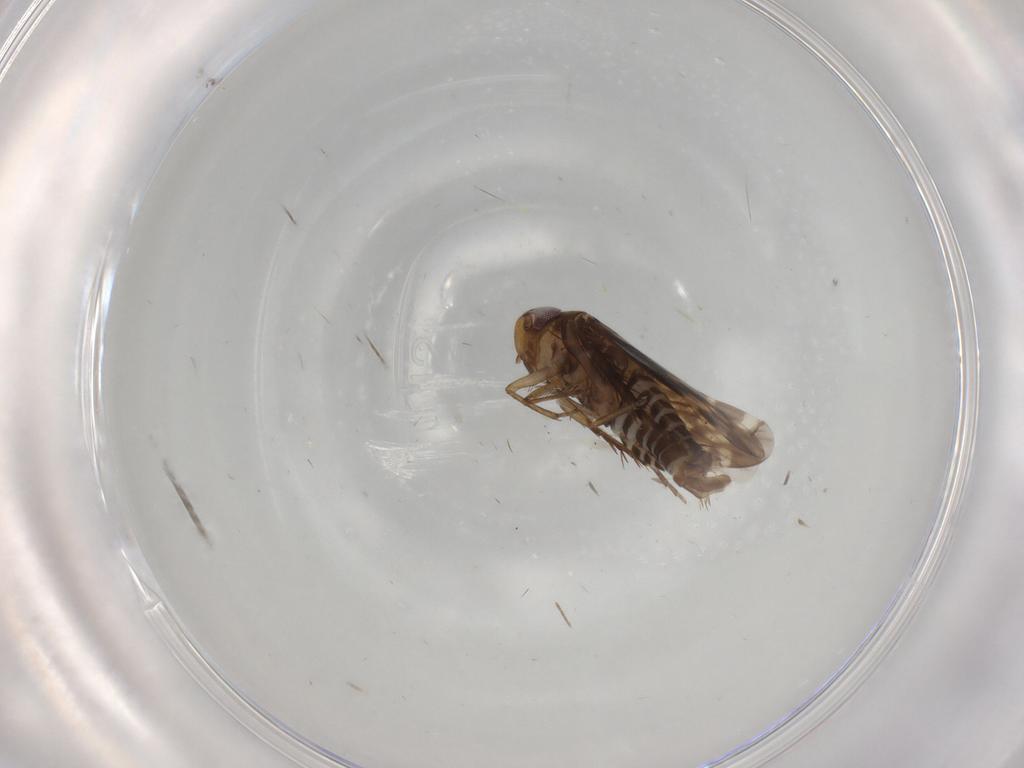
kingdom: Animalia
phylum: Arthropoda
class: Insecta
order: Hemiptera
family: Cicadellidae
